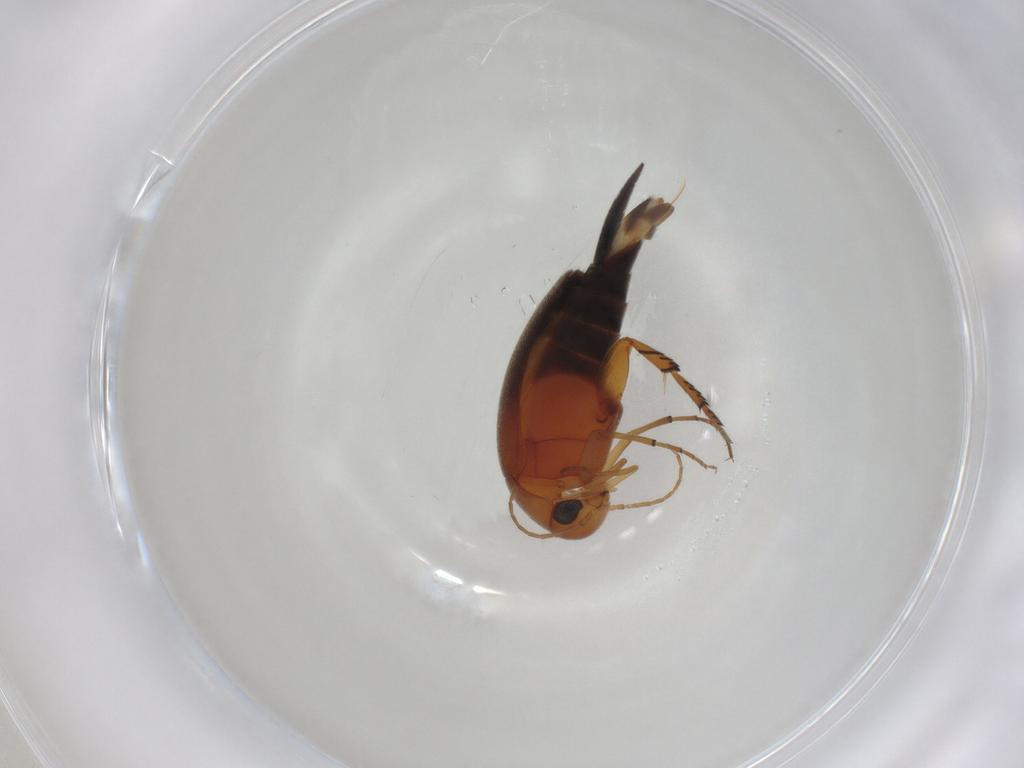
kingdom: Animalia
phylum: Arthropoda
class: Insecta
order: Coleoptera
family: Lampyridae
